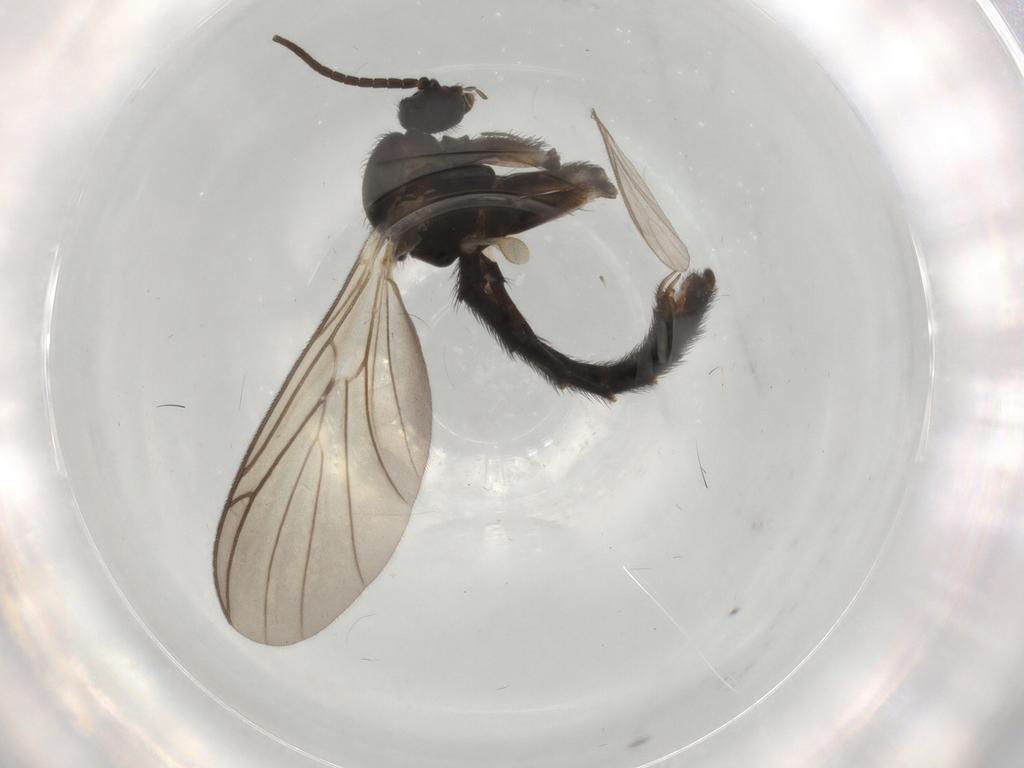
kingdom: Animalia
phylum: Arthropoda
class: Insecta
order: Diptera
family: Chloropidae
